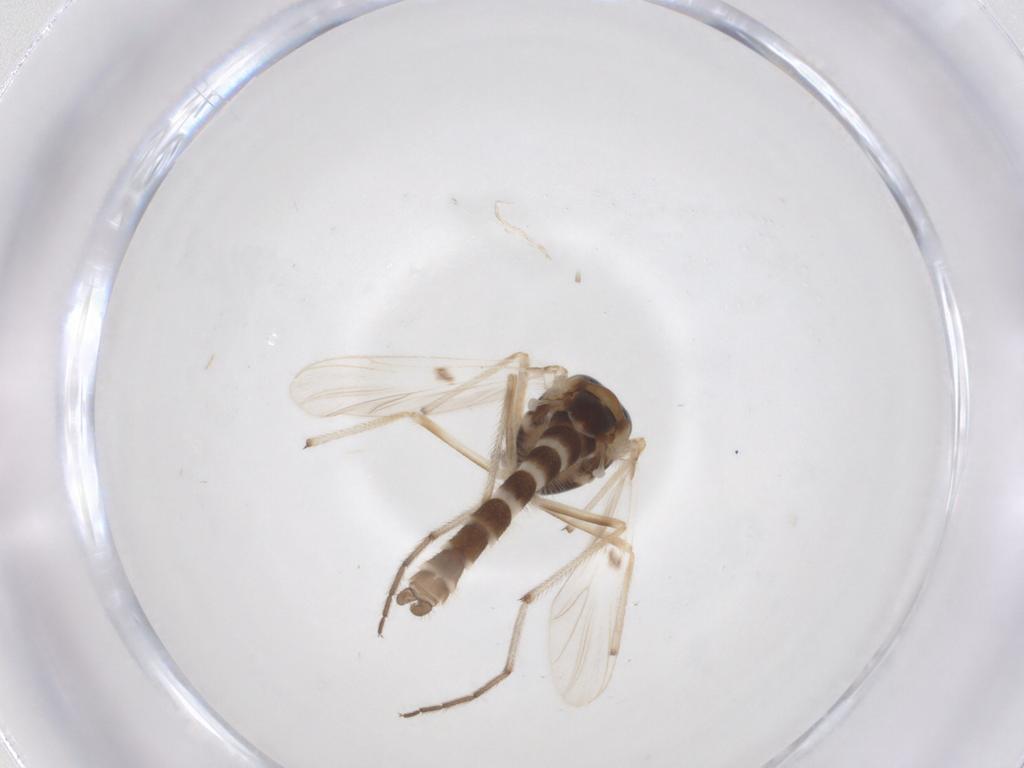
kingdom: Animalia
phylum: Arthropoda
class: Insecta
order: Diptera
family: Chironomidae
